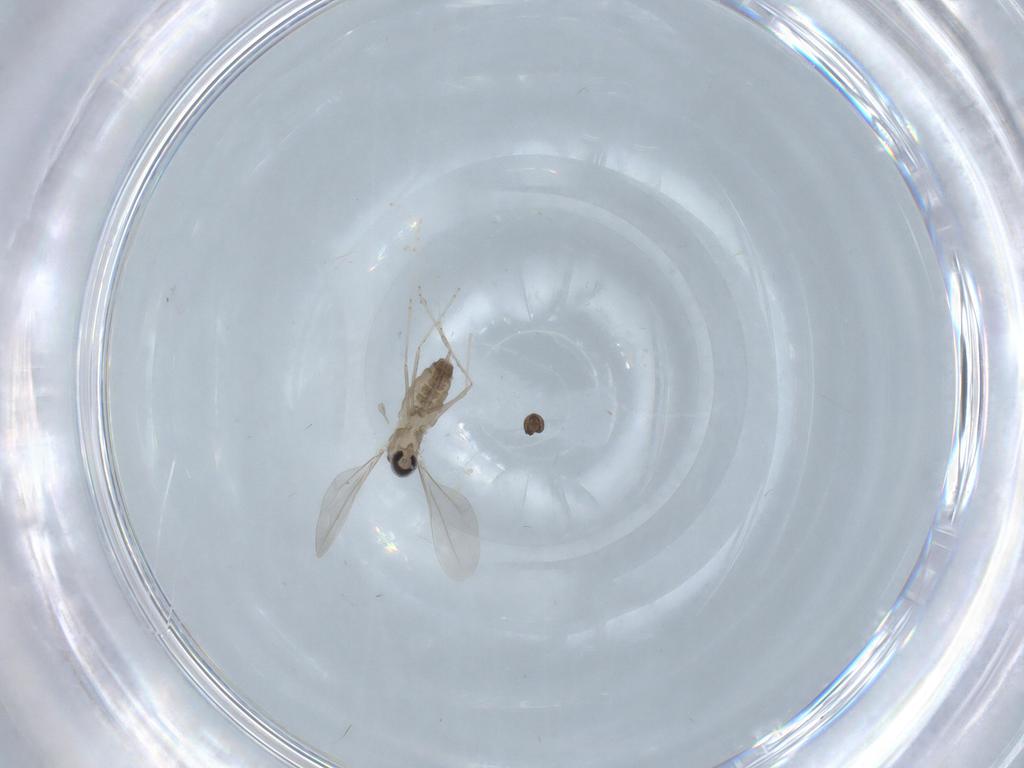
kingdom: Animalia
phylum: Arthropoda
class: Insecta
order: Diptera
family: Cecidomyiidae
